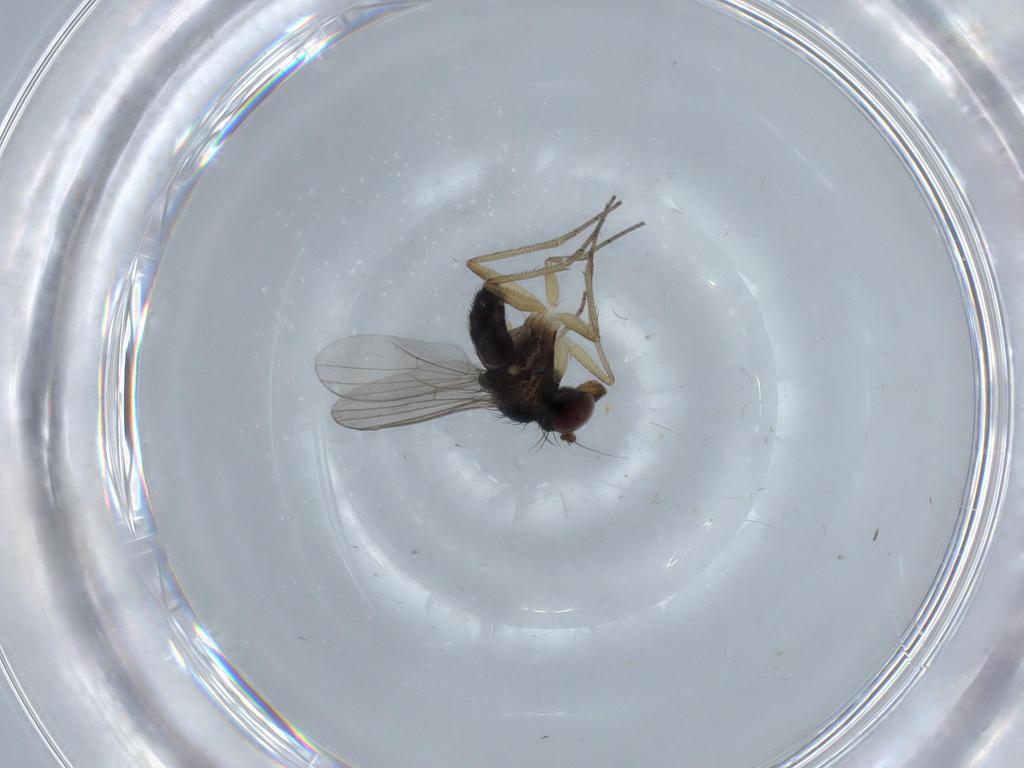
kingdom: Animalia
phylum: Arthropoda
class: Insecta
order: Diptera
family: Dolichopodidae
